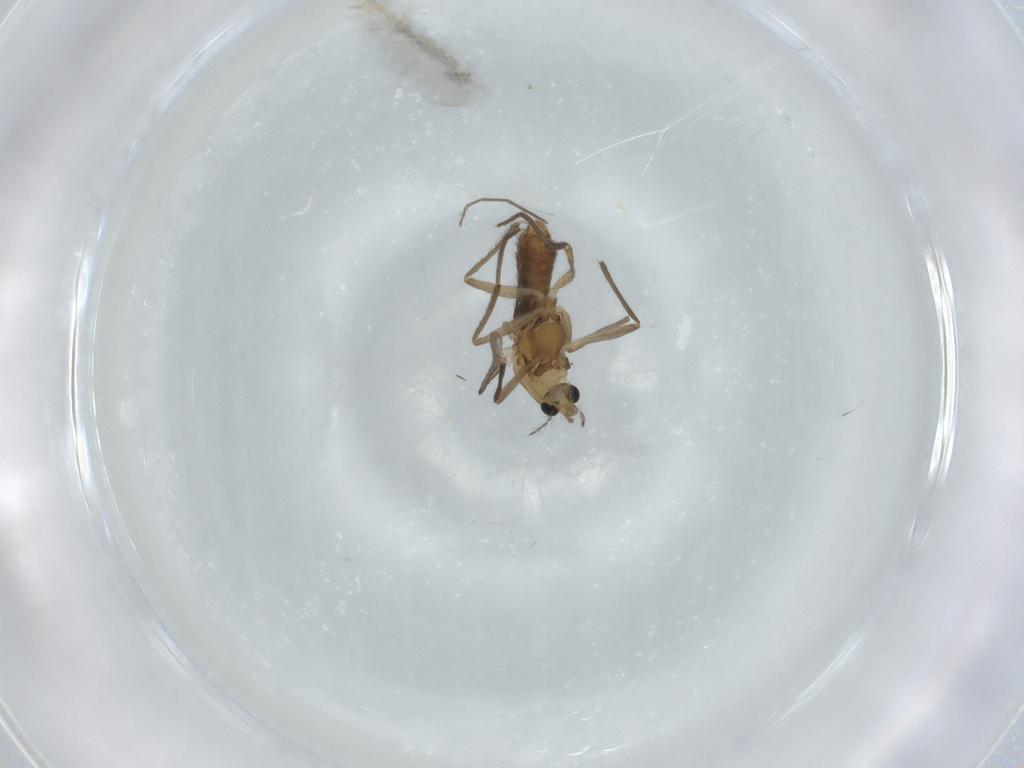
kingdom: Animalia
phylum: Arthropoda
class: Insecta
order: Diptera
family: Chironomidae
